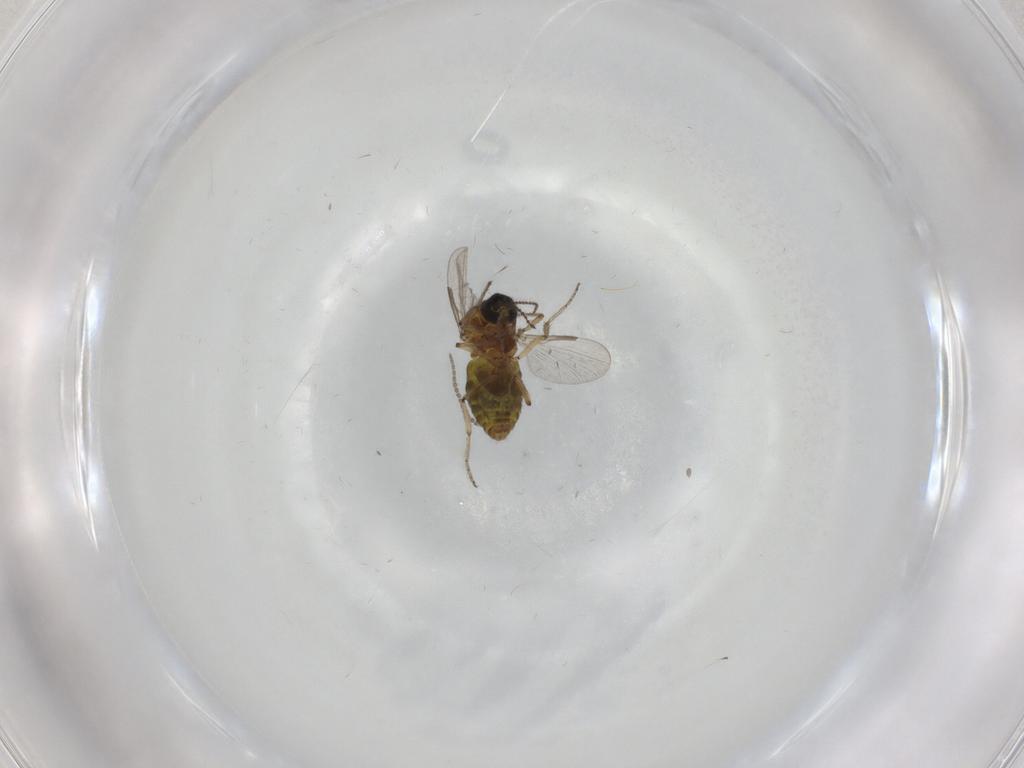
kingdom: Animalia
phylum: Arthropoda
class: Insecta
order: Diptera
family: Ceratopogonidae
